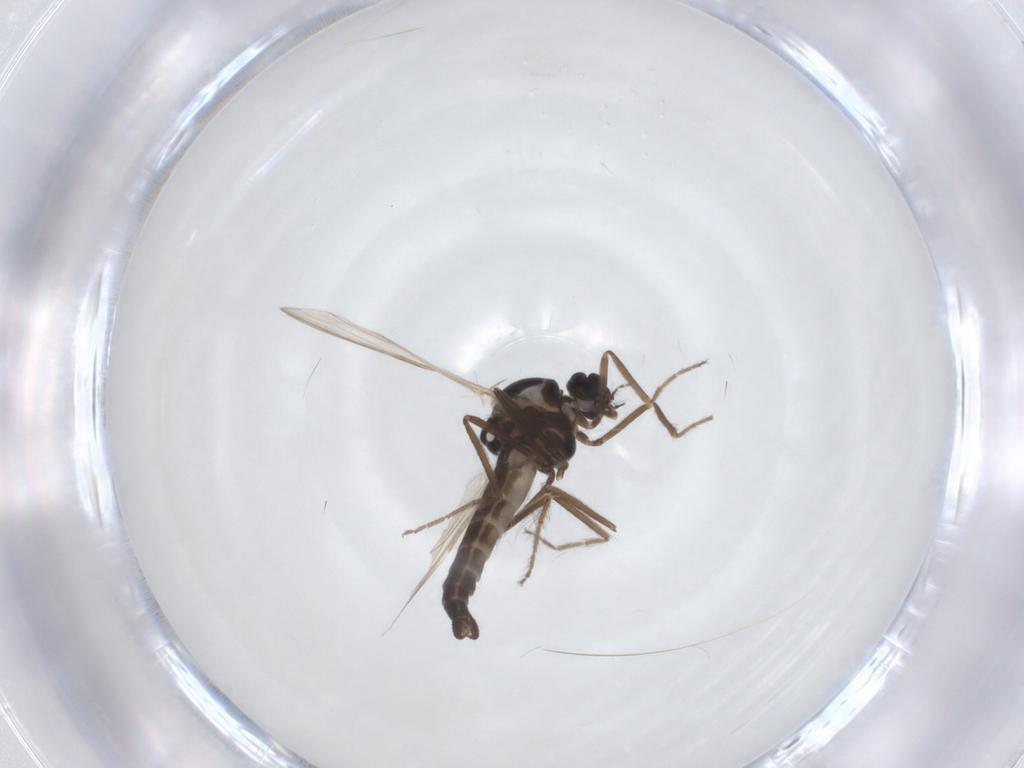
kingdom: Animalia
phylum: Arthropoda
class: Insecta
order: Diptera
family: Ceratopogonidae
